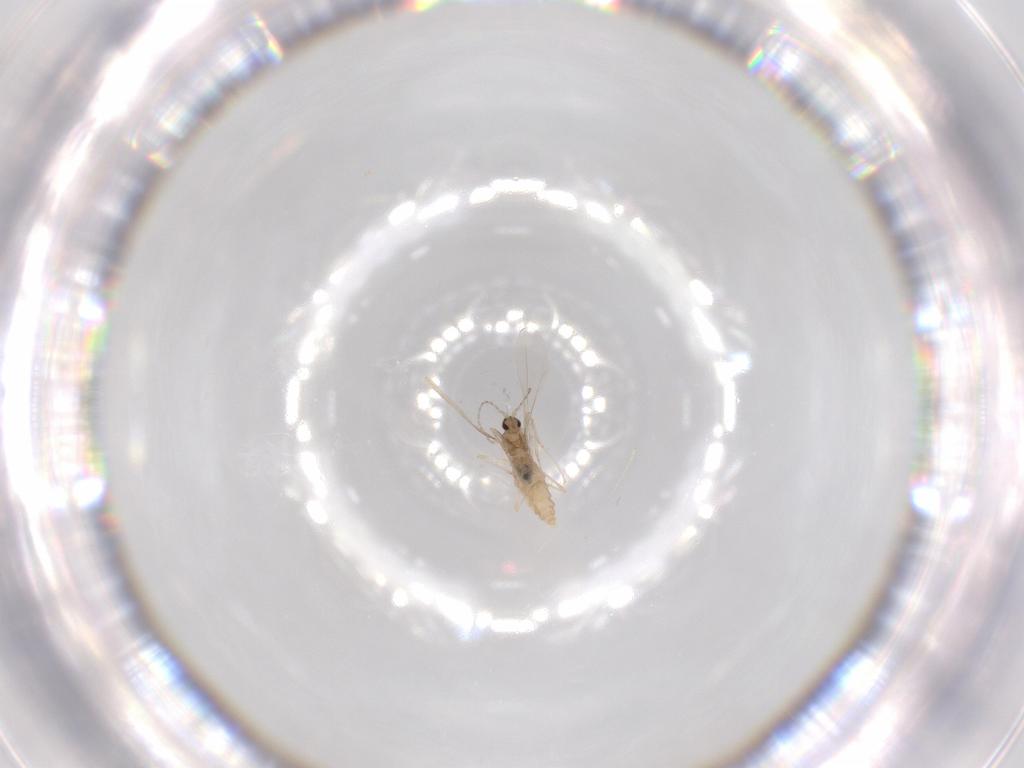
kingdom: Animalia
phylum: Arthropoda
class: Insecta
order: Diptera
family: Cecidomyiidae
